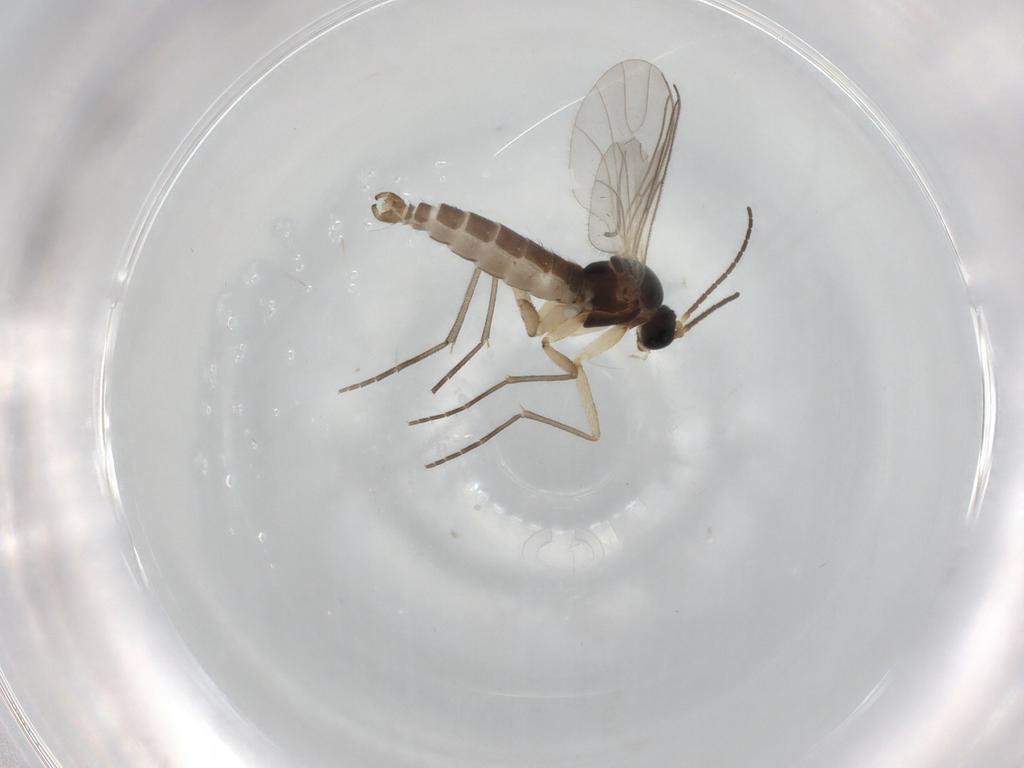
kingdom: Animalia
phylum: Arthropoda
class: Insecta
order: Diptera
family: Sciaridae
